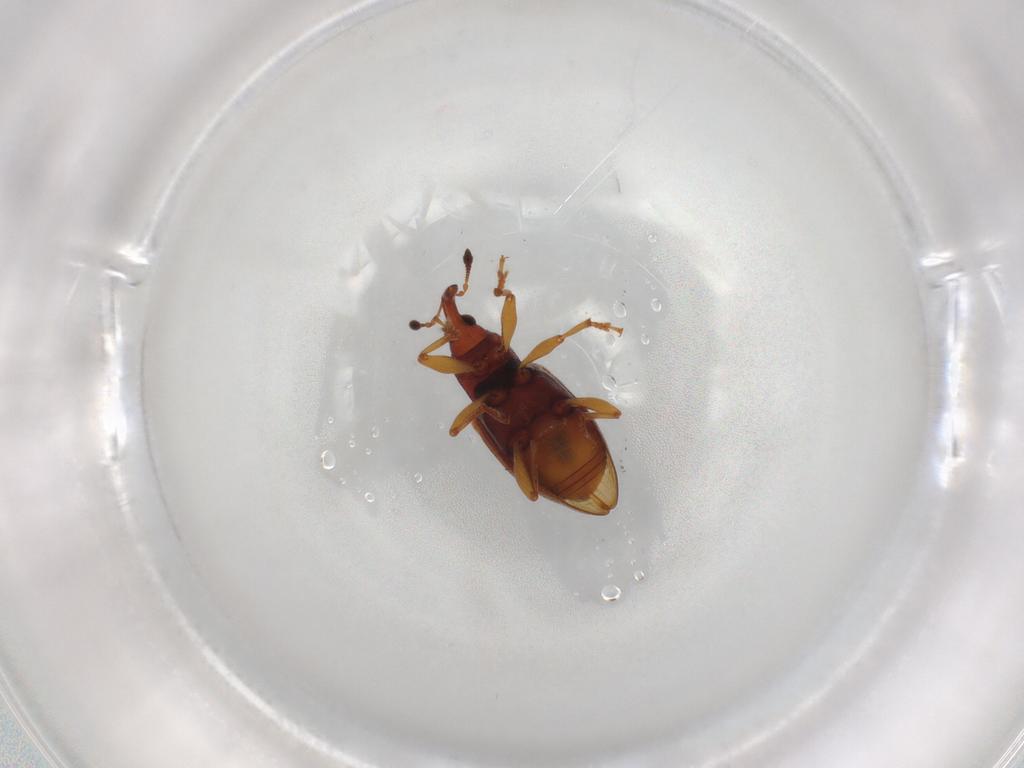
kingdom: Animalia
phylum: Arthropoda
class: Insecta
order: Coleoptera
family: Curculionidae
